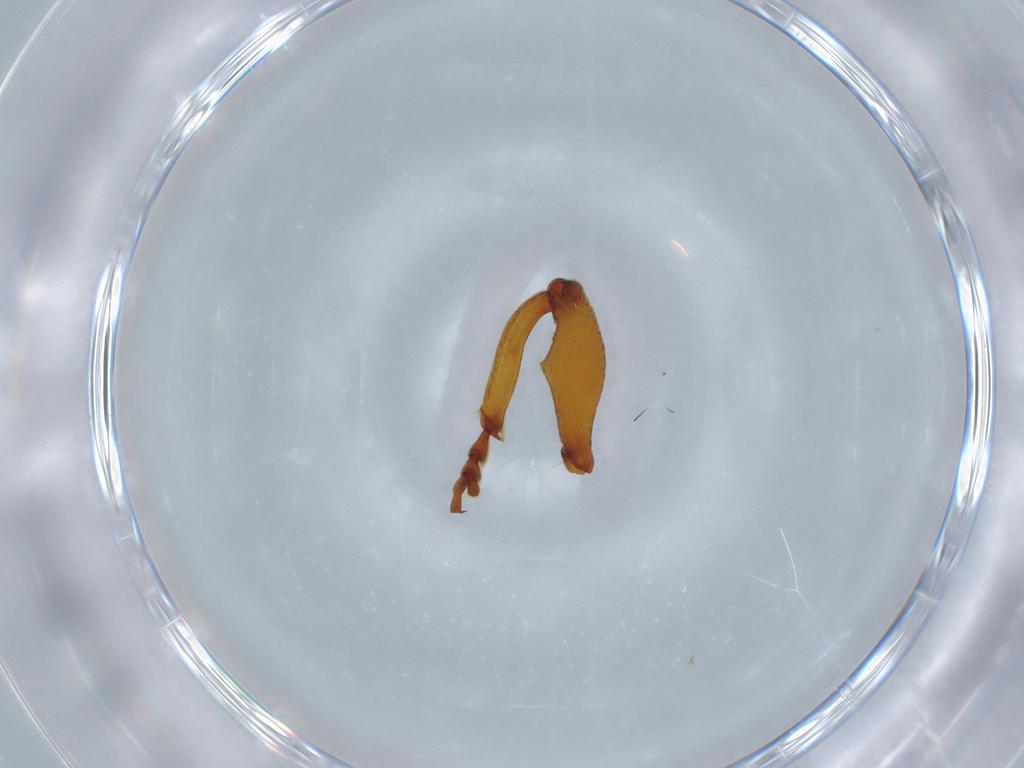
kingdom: Animalia
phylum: Arthropoda
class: Insecta
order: Coleoptera
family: Curculionidae
